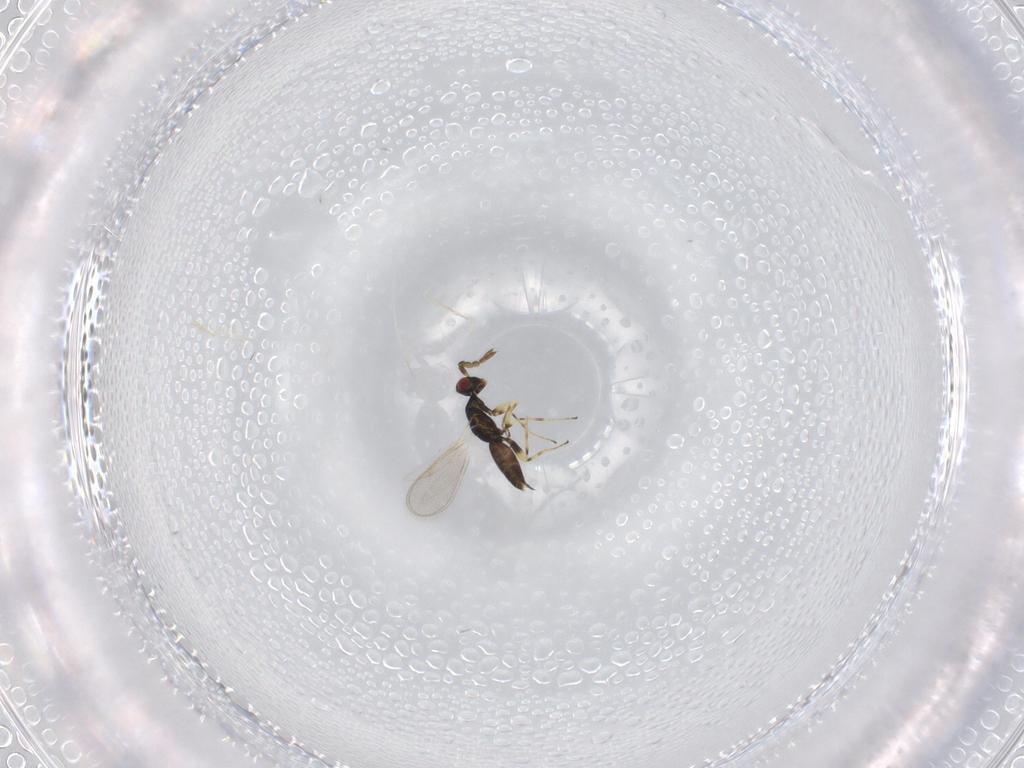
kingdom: Animalia
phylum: Arthropoda
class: Insecta
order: Hymenoptera
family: Eulophidae
